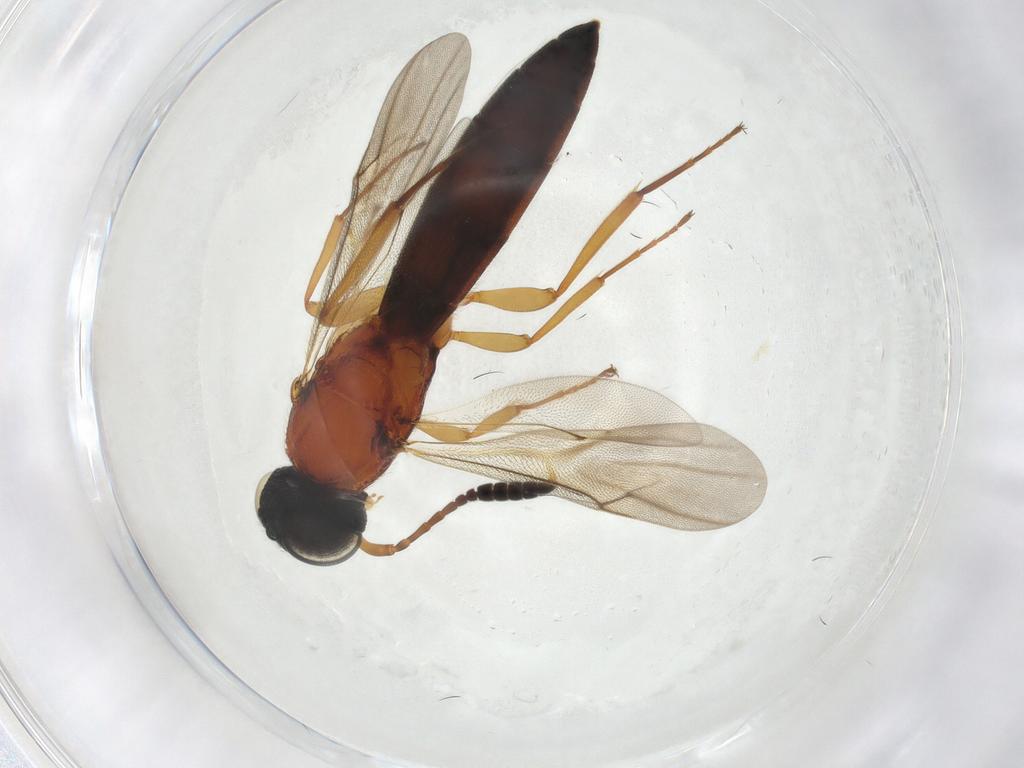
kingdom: Animalia
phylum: Arthropoda
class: Insecta
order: Hymenoptera
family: Scelionidae
